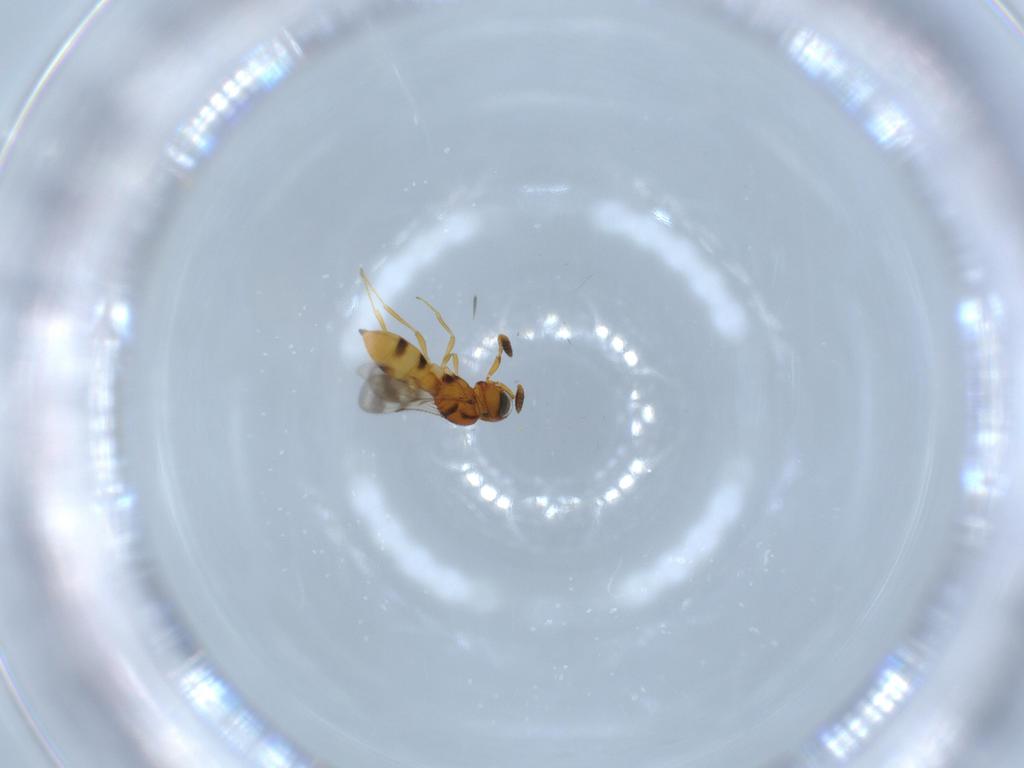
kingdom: Animalia
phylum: Arthropoda
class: Insecta
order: Hymenoptera
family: Scelionidae
